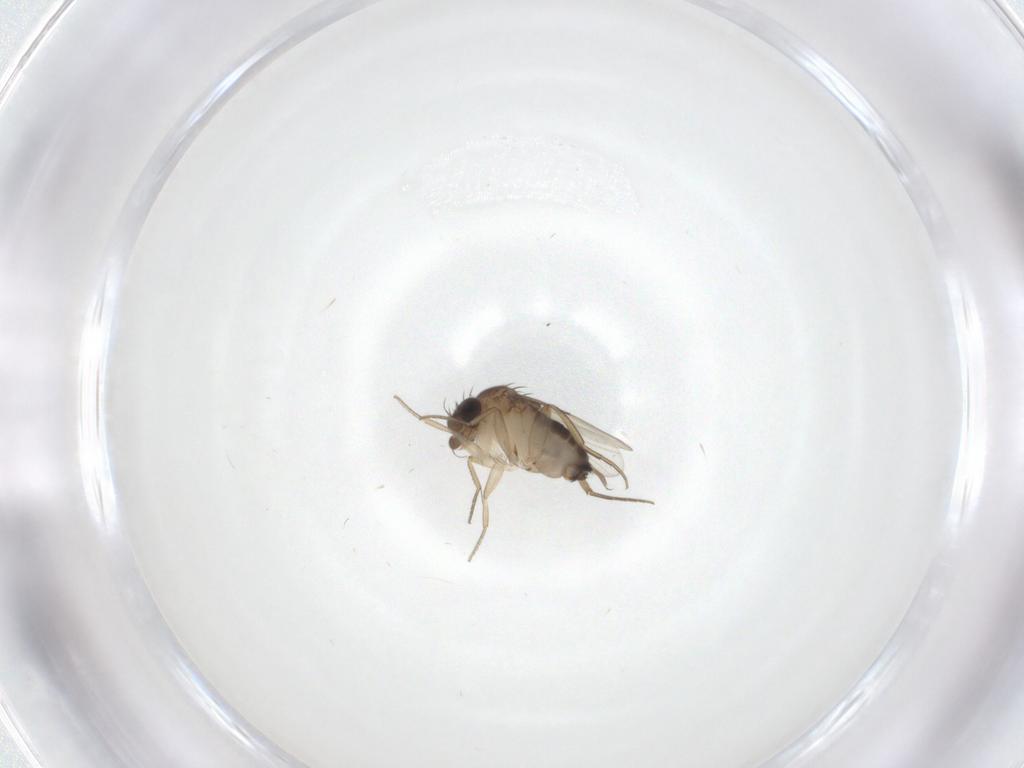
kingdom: Animalia
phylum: Arthropoda
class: Insecta
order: Diptera
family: Phoridae
